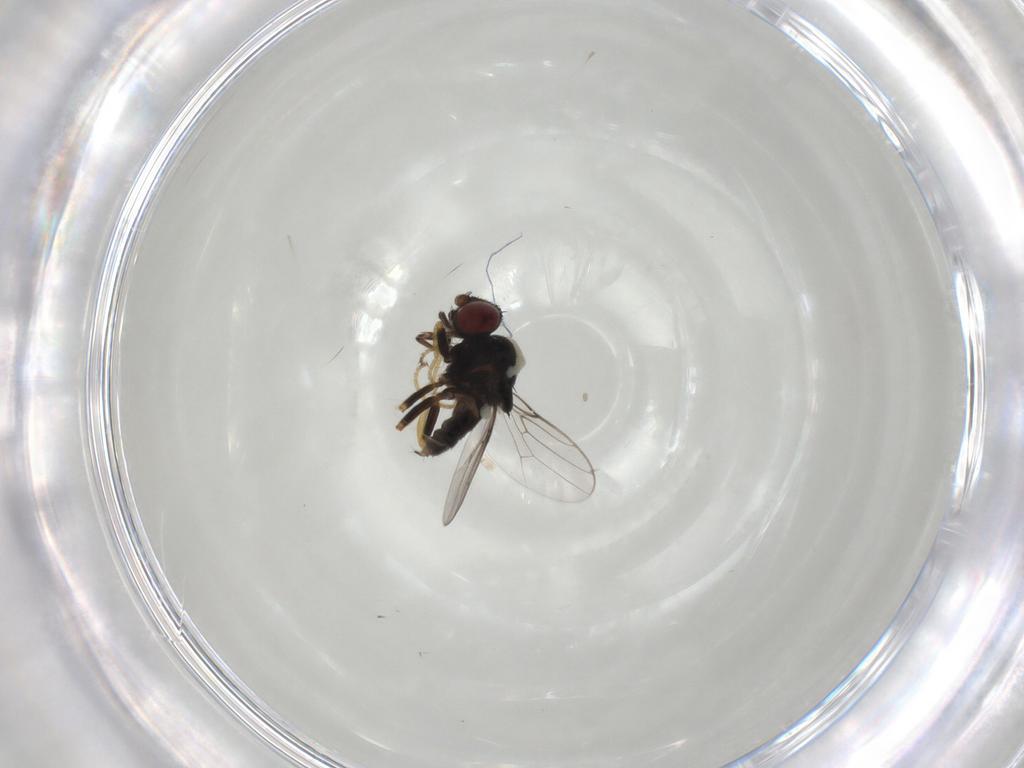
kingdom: Animalia
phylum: Arthropoda
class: Insecta
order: Diptera
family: Chloropidae
